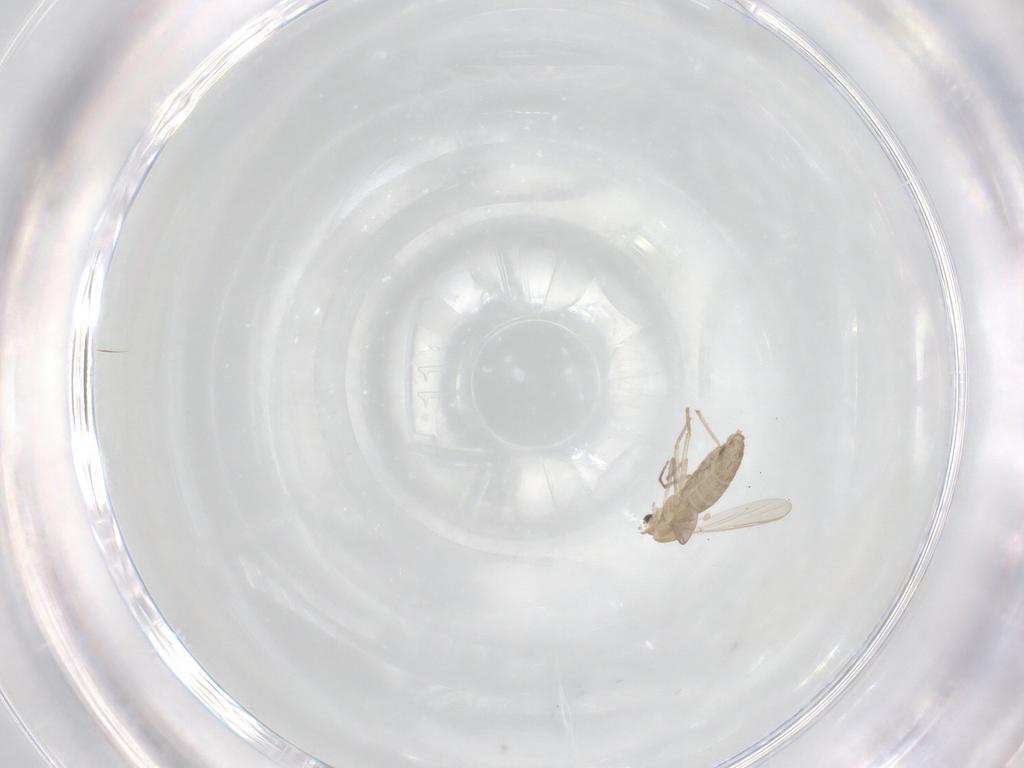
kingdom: Animalia
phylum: Arthropoda
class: Insecta
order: Diptera
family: Chironomidae
